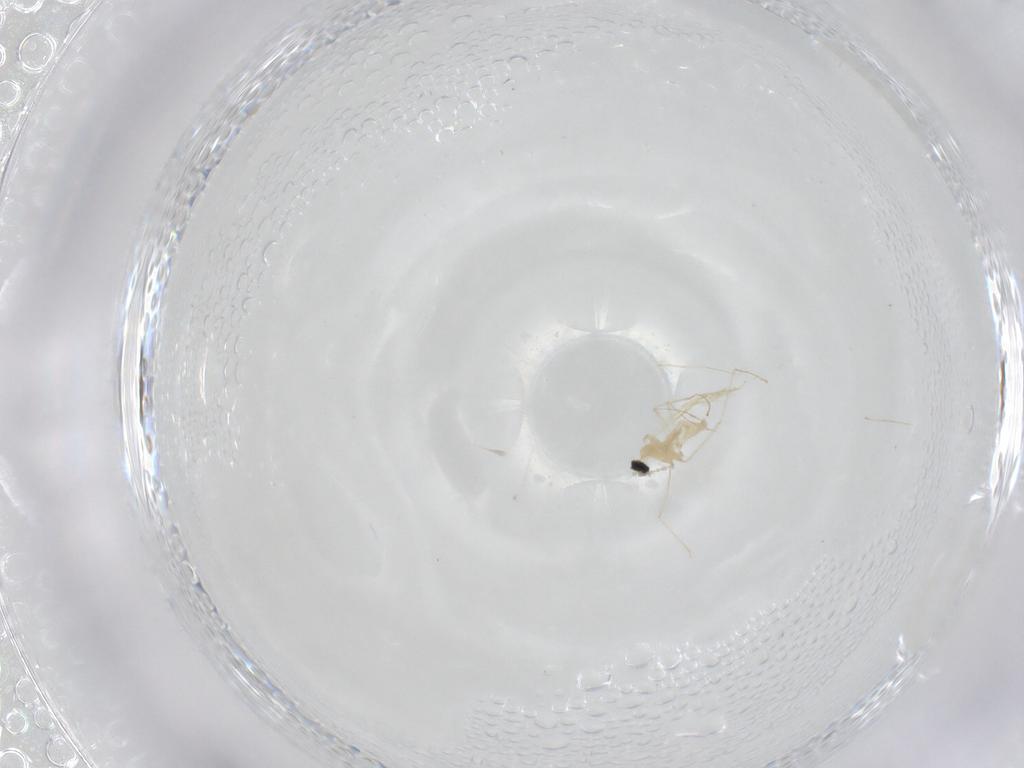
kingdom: Animalia
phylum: Arthropoda
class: Insecta
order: Diptera
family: Cecidomyiidae
